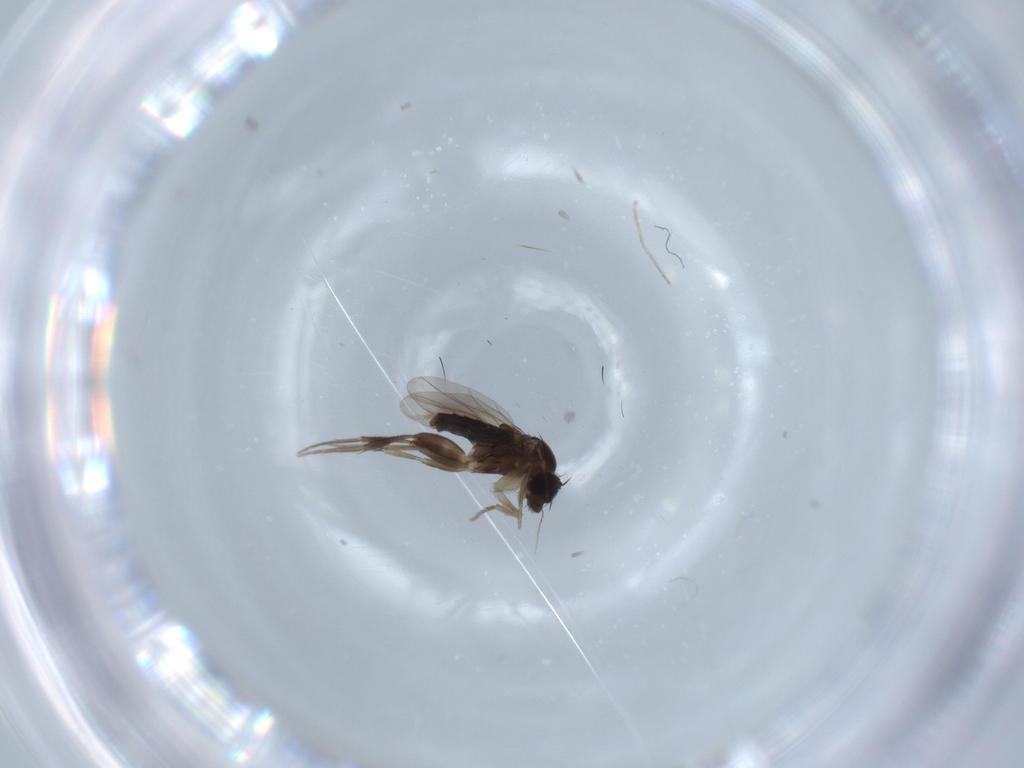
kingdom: Animalia
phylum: Arthropoda
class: Insecta
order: Diptera
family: Phoridae
